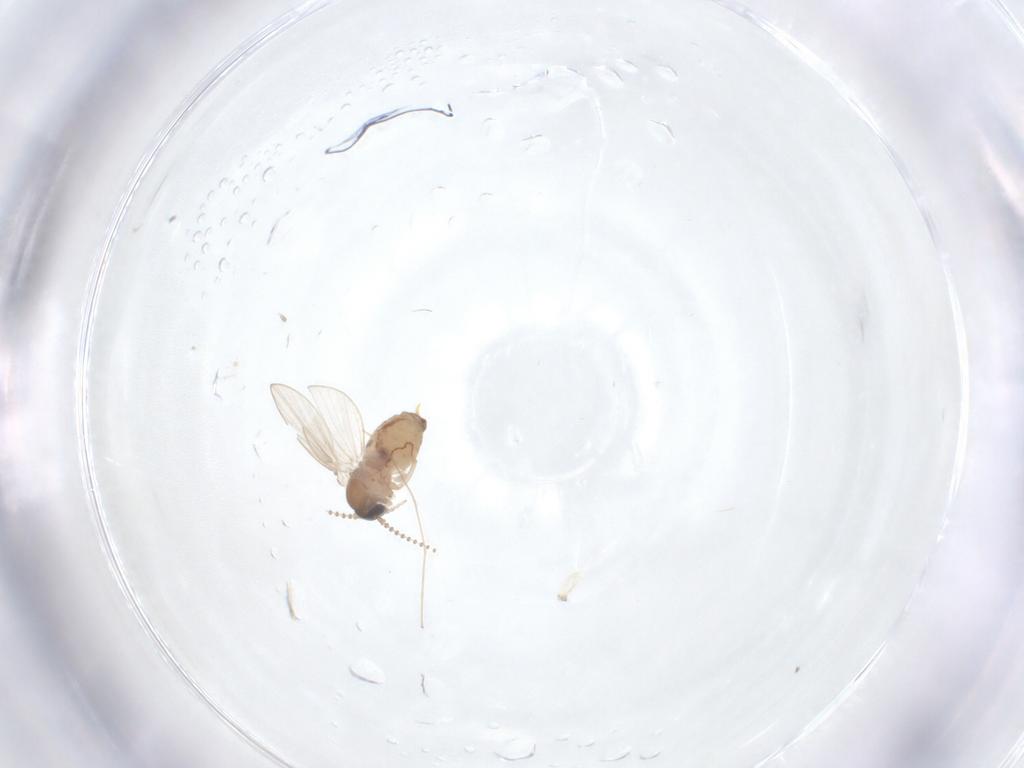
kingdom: Animalia
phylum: Arthropoda
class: Insecta
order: Diptera
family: Psychodidae
